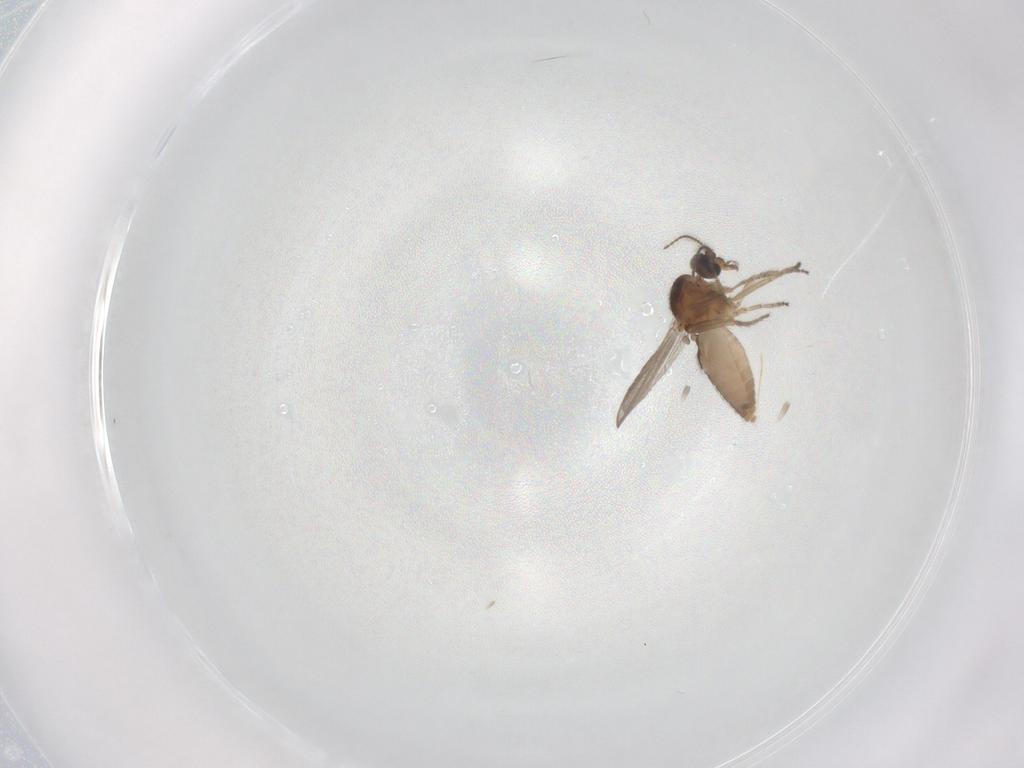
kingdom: Animalia
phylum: Arthropoda
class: Insecta
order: Diptera
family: Ceratopogonidae
